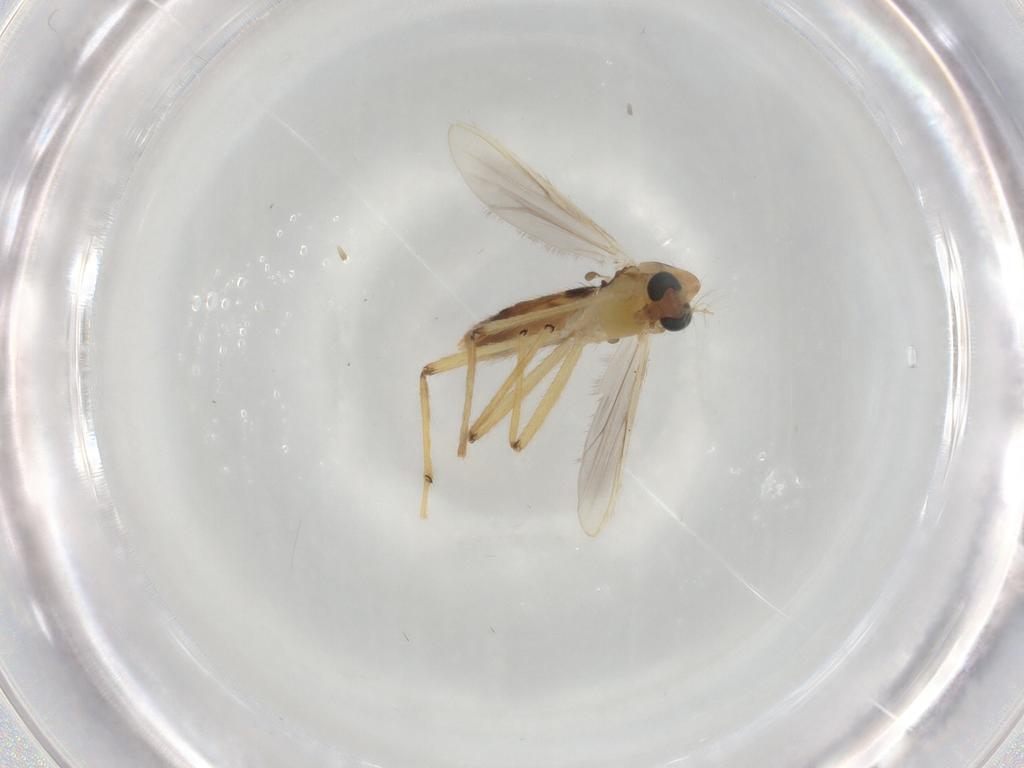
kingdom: Animalia
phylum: Arthropoda
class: Insecta
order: Diptera
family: Chironomidae
